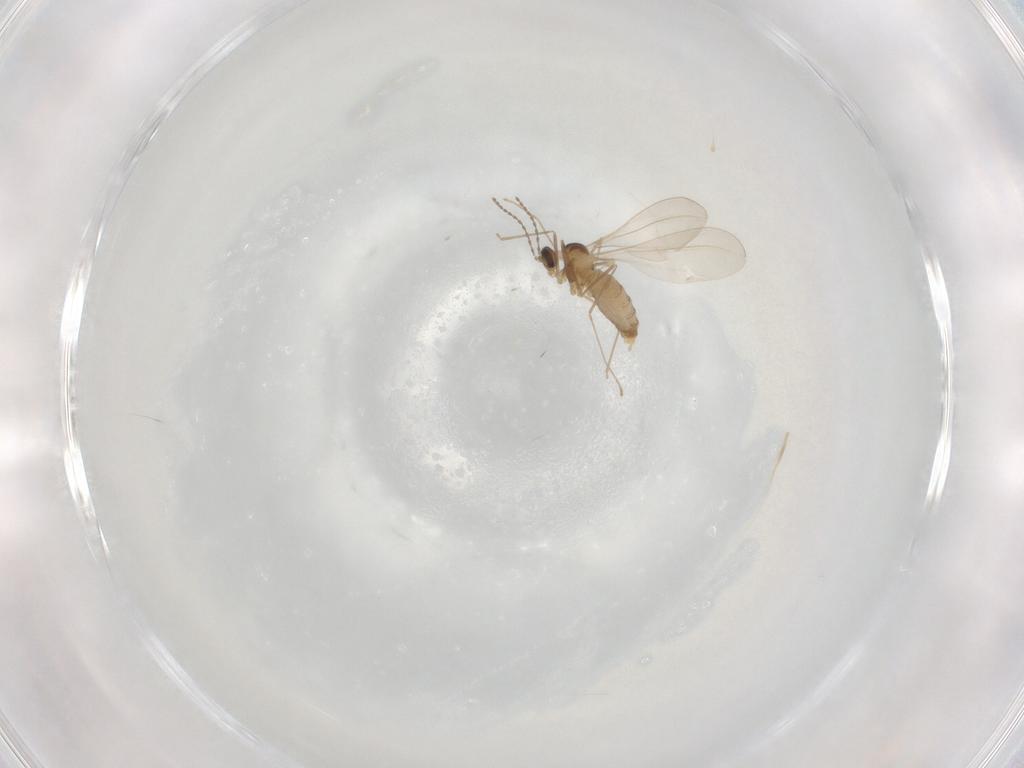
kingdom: Animalia
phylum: Arthropoda
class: Insecta
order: Diptera
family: Cecidomyiidae
